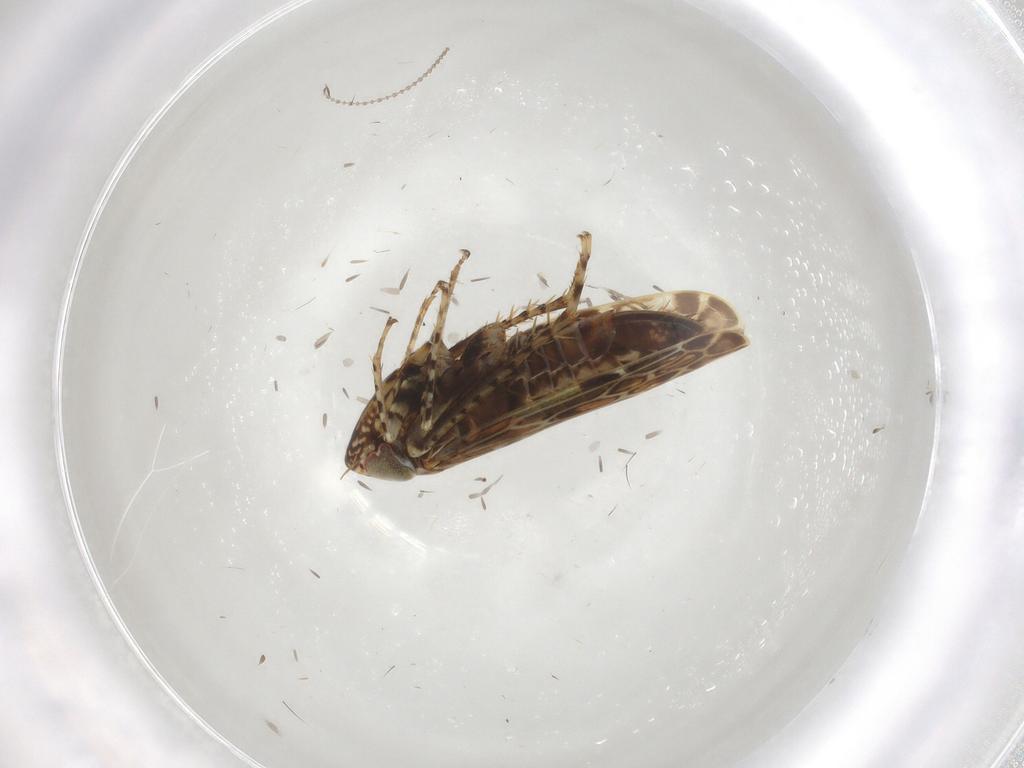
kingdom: Animalia
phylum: Arthropoda
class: Insecta
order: Hemiptera
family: Cicadellidae
